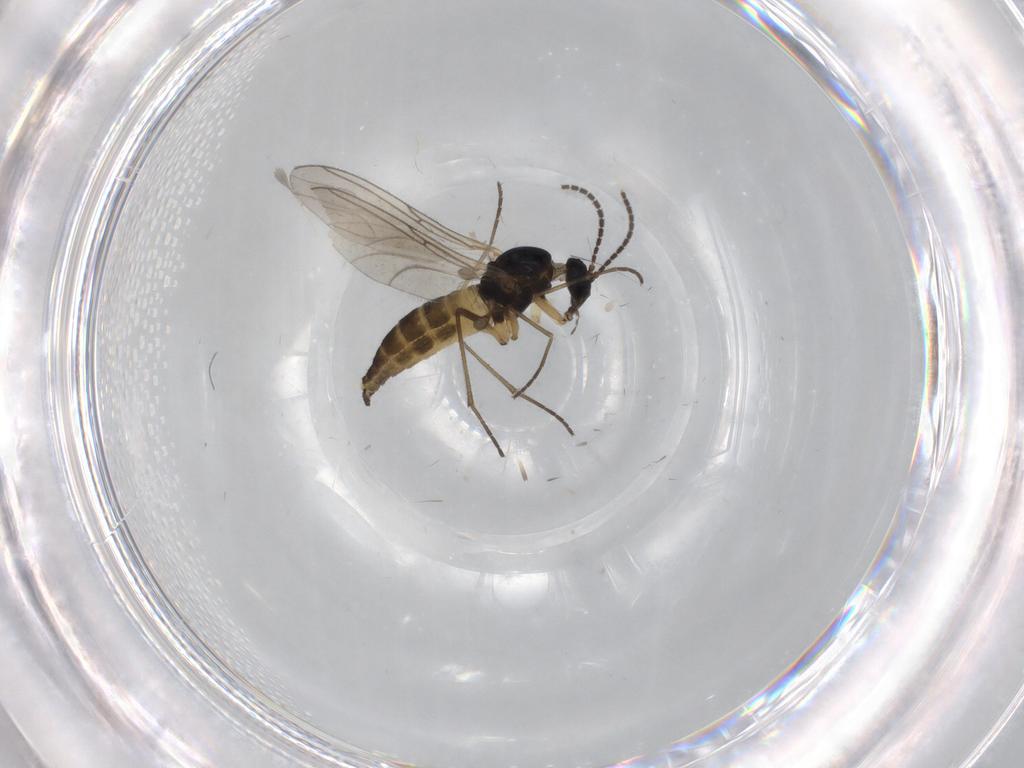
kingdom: Animalia
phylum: Arthropoda
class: Insecta
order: Diptera
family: Sciaridae
